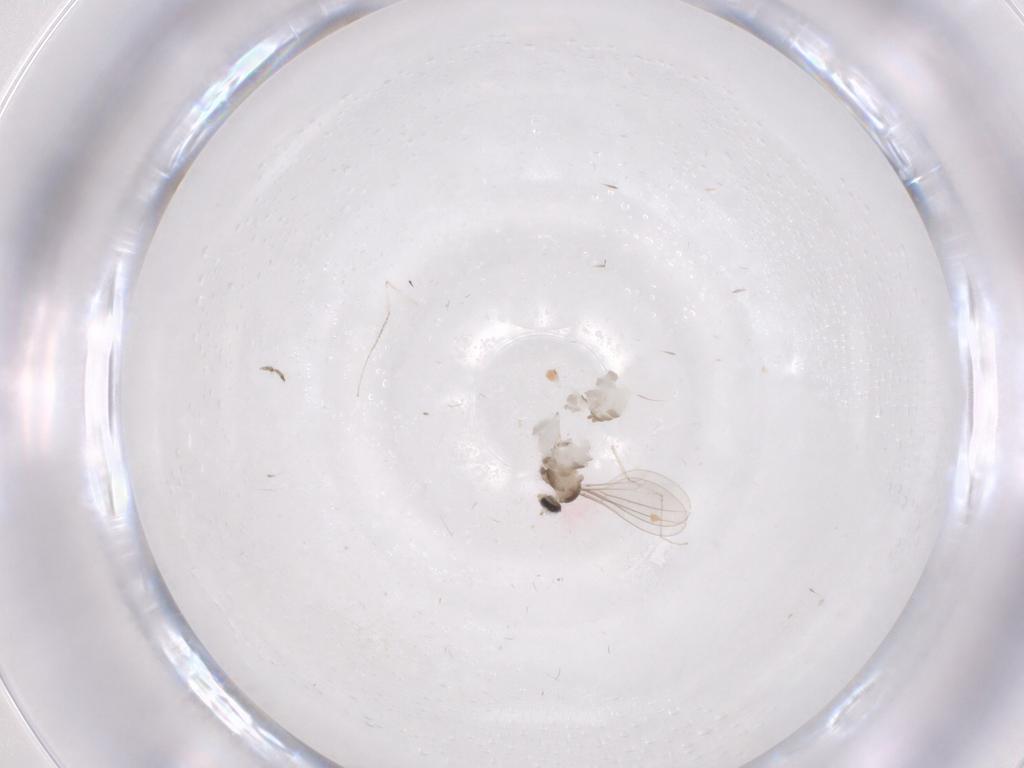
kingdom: Animalia
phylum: Arthropoda
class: Insecta
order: Diptera
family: Cecidomyiidae
